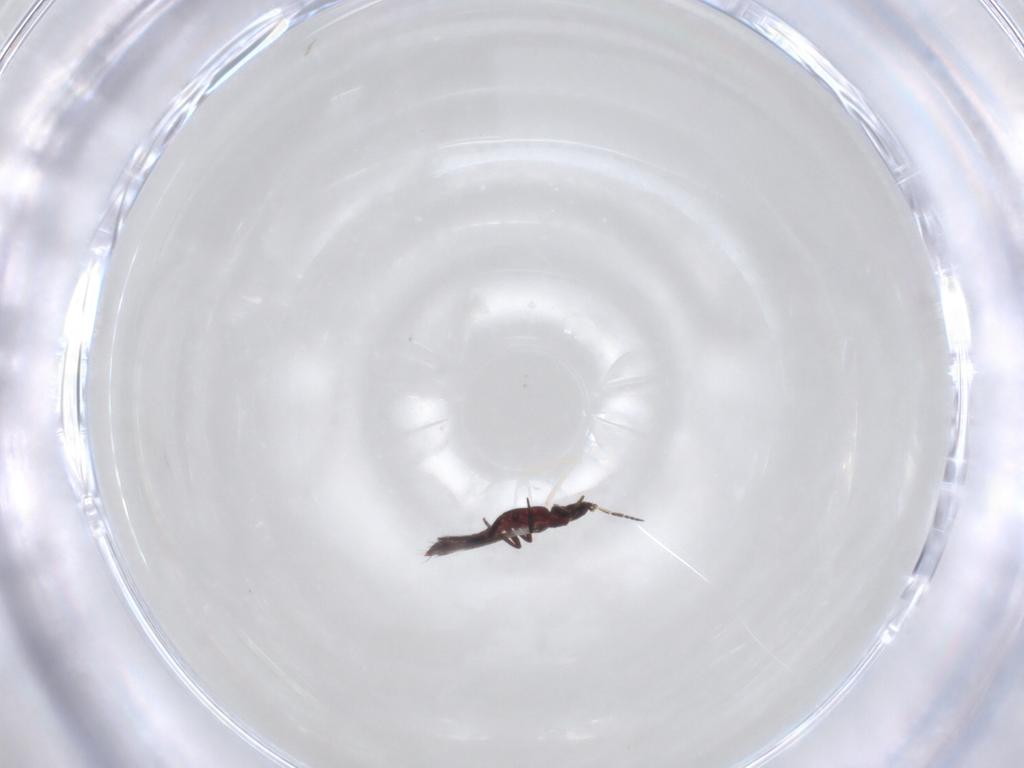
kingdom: Animalia
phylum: Arthropoda
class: Insecta
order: Thysanoptera
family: Aeolothripidae
